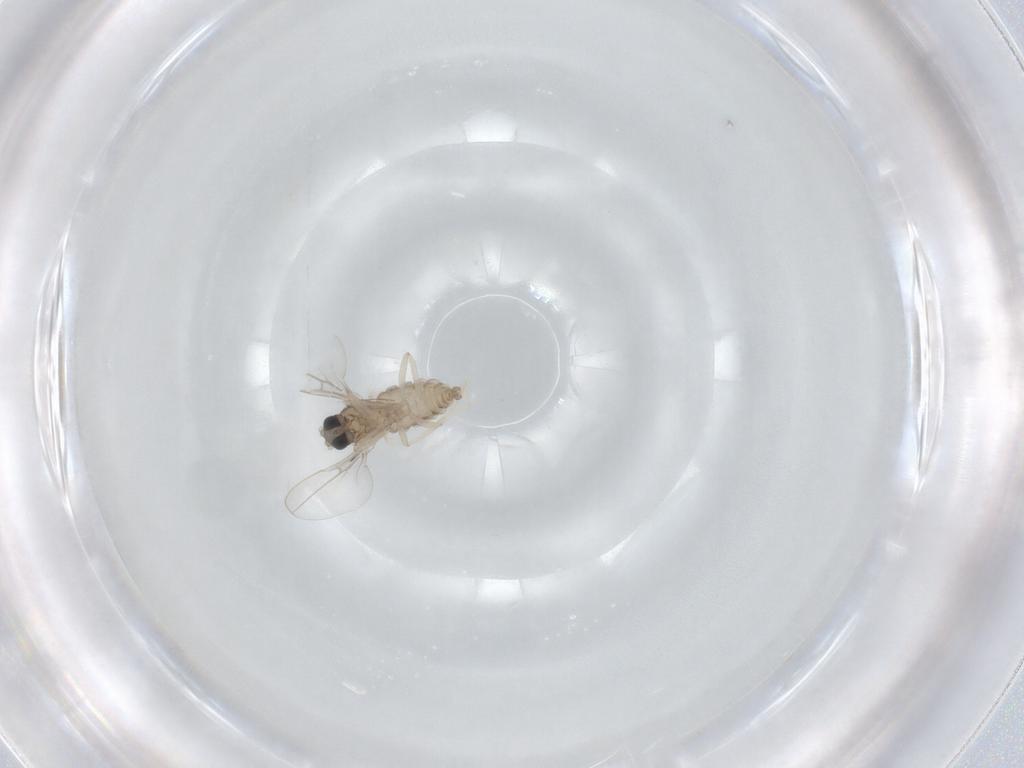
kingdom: Animalia
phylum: Arthropoda
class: Insecta
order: Diptera
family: Cecidomyiidae
